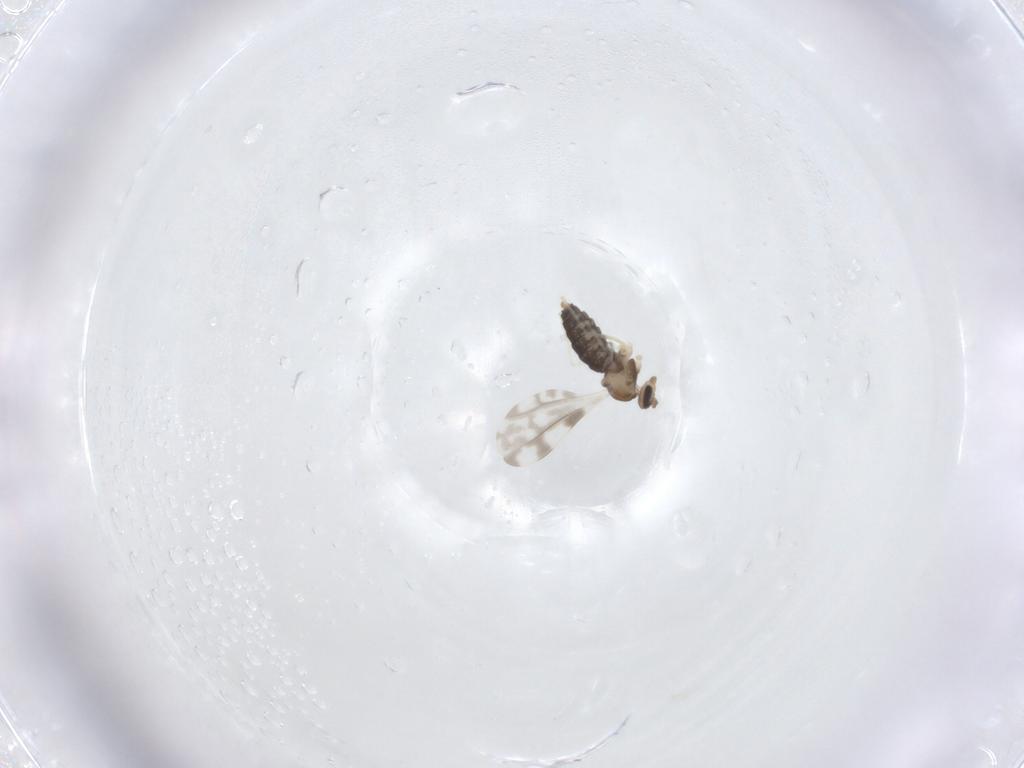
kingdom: Animalia
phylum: Arthropoda
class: Insecta
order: Diptera
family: Cecidomyiidae
